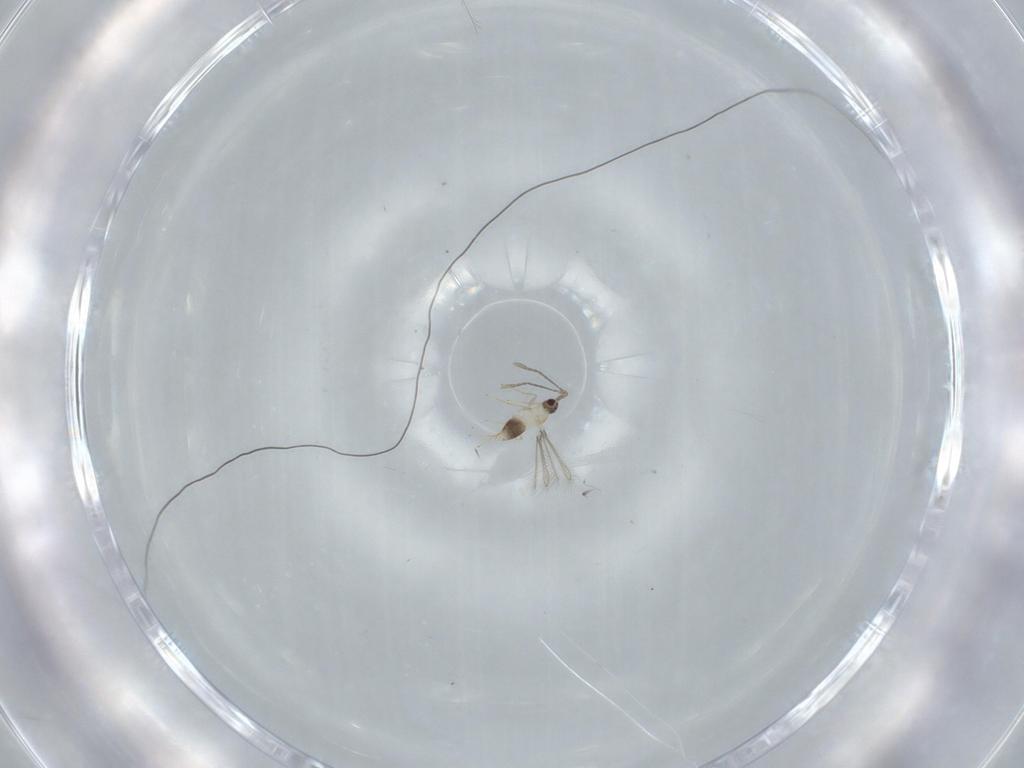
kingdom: Animalia
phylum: Arthropoda
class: Insecta
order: Hymenoptera
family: Mymaridae
